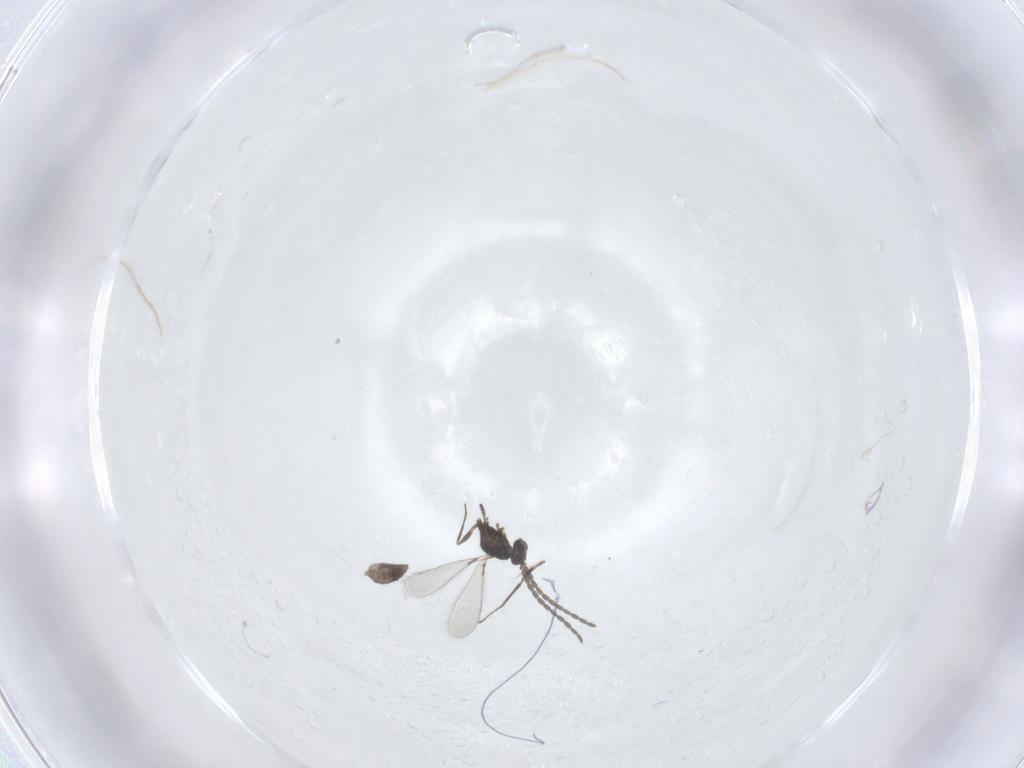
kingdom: Animalia
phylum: Arthropoda
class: Insecta
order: Hymenoptera
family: Mymaridae
